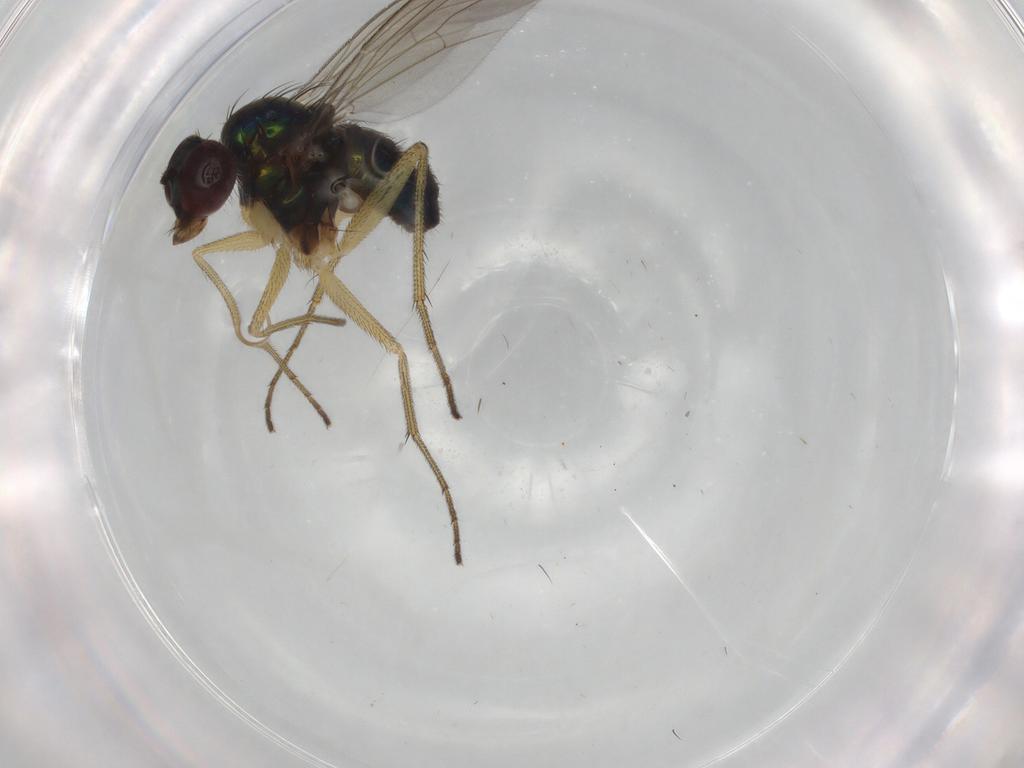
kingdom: Animalia
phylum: Arthropoda
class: Insecta
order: Diptera
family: Dolichopodidae
